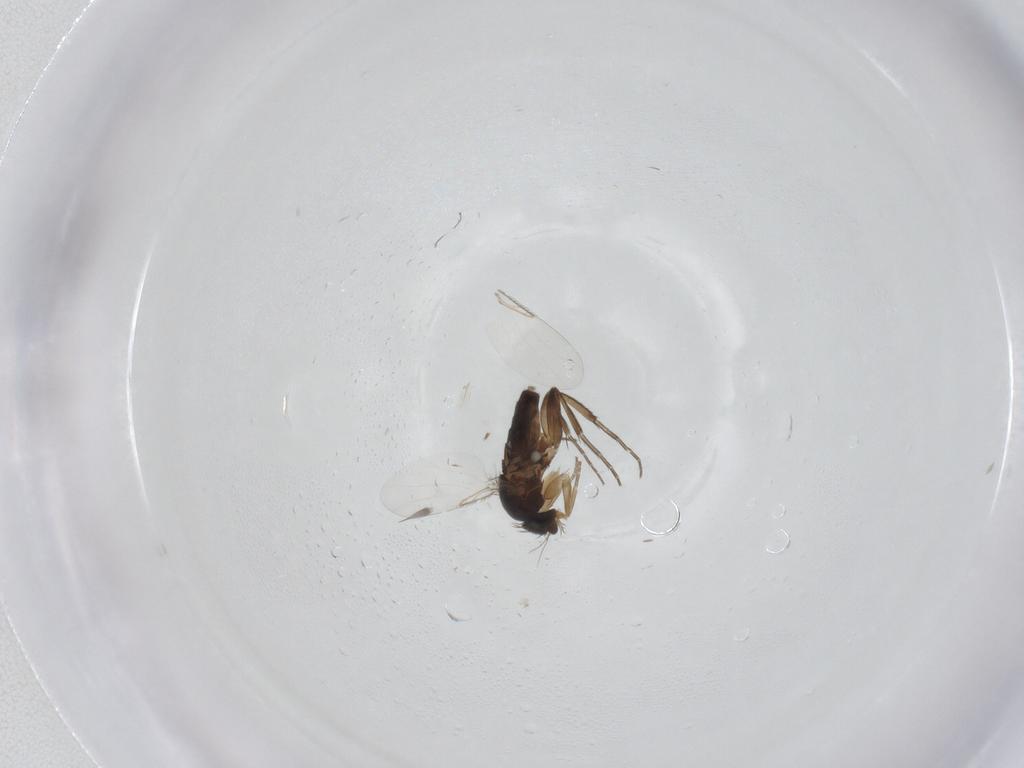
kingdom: Animalia
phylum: Arthropoda
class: Insecta
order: Diptera
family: Phoridae
